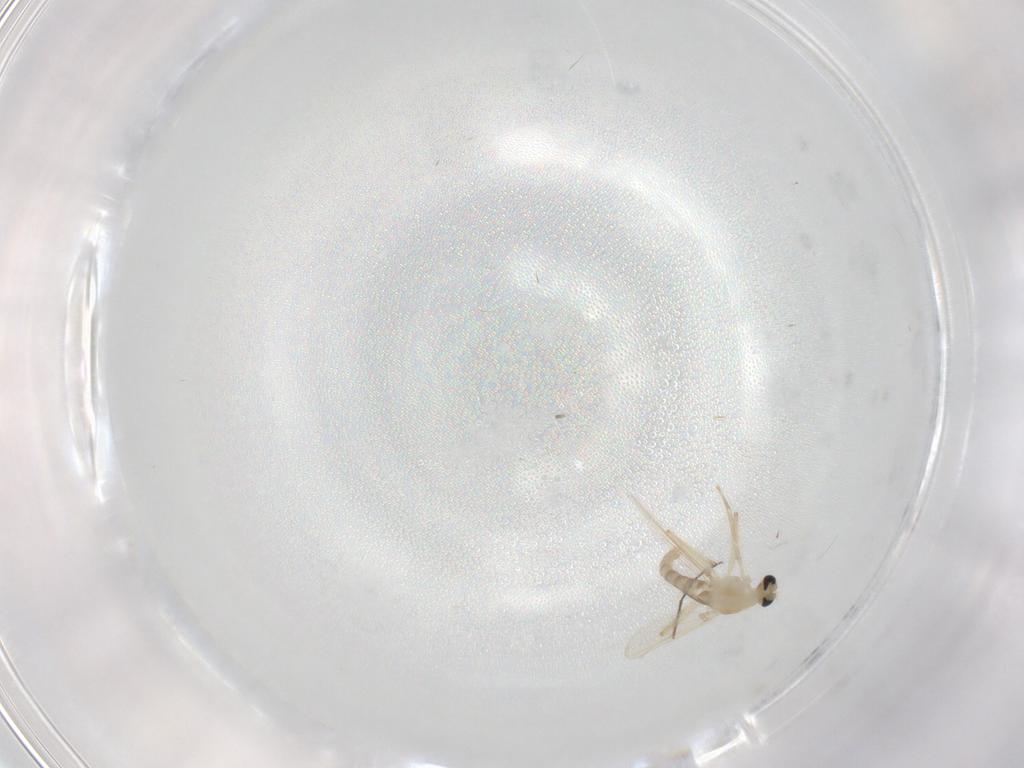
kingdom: Animalia
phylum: Arthropoda
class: Insecta
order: Diptera
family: Chironomidae
